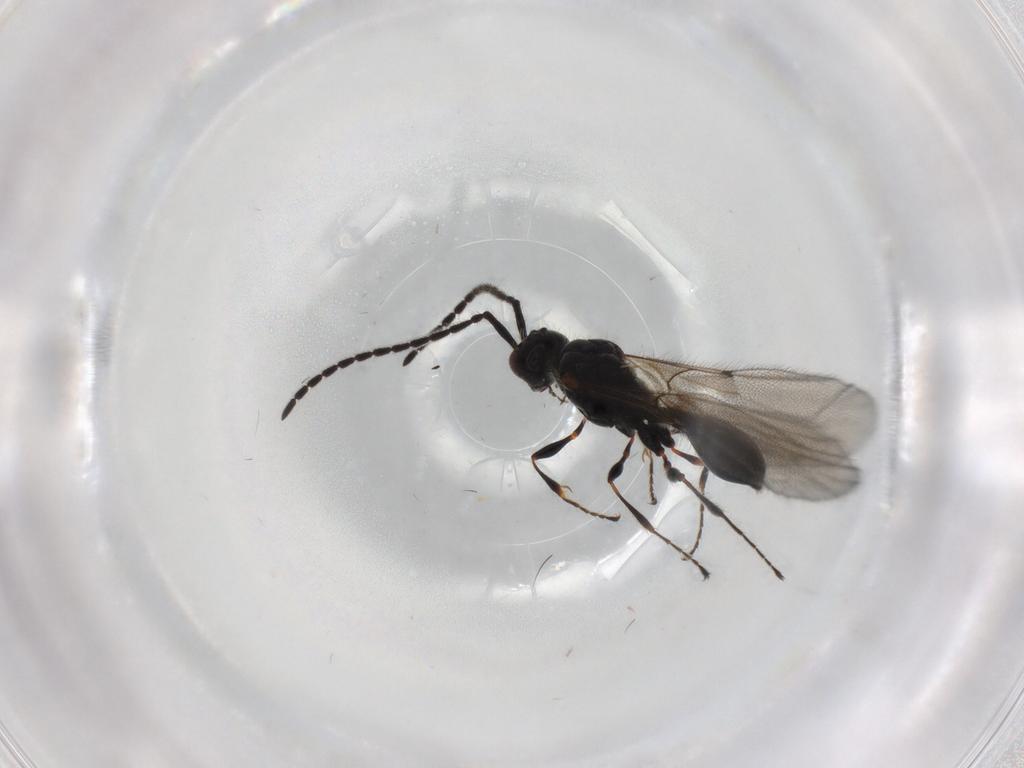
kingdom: Animalia
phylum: Arthropoda
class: Insecta
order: Hymenoptera
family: Diapriidae
